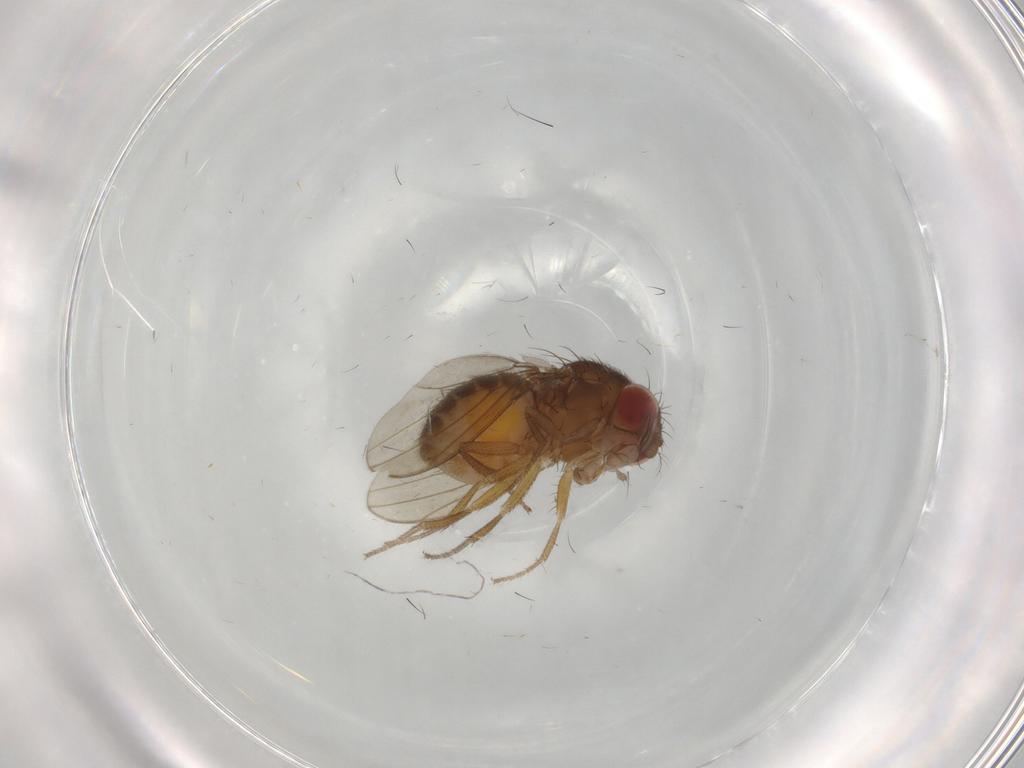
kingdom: Animalia
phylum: Arthropoda
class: Insecta
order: Diptera
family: Drosophilidae
